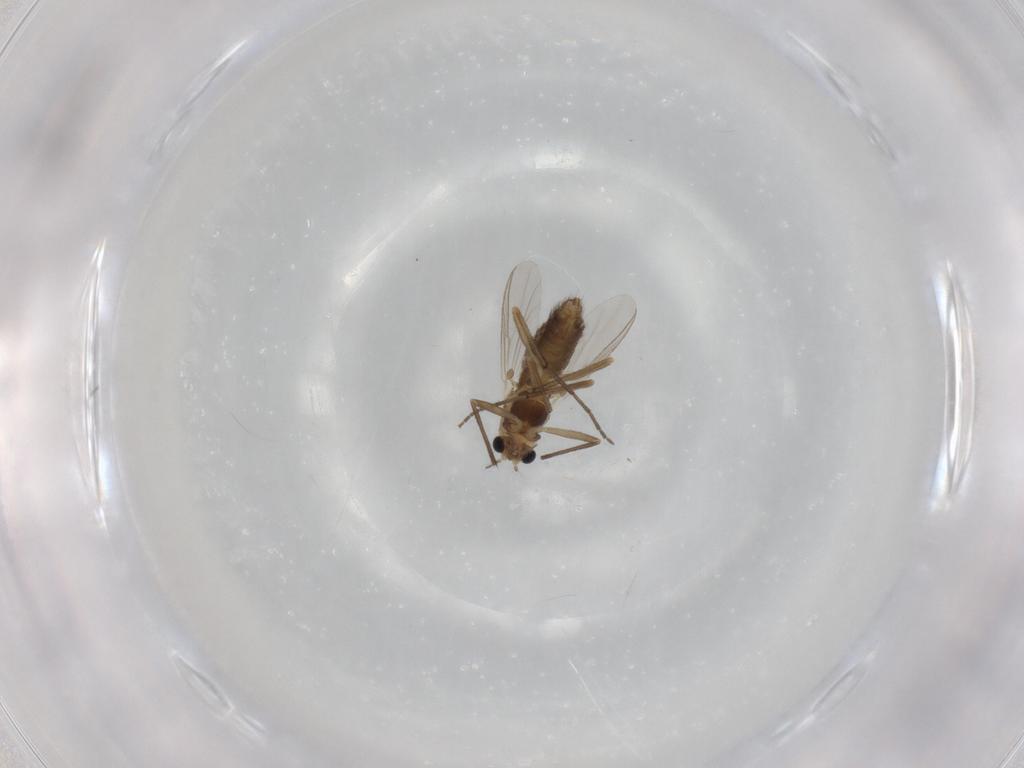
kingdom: Animalia
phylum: Arthropoda
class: Insecta
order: Diptera
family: Chironomidae
